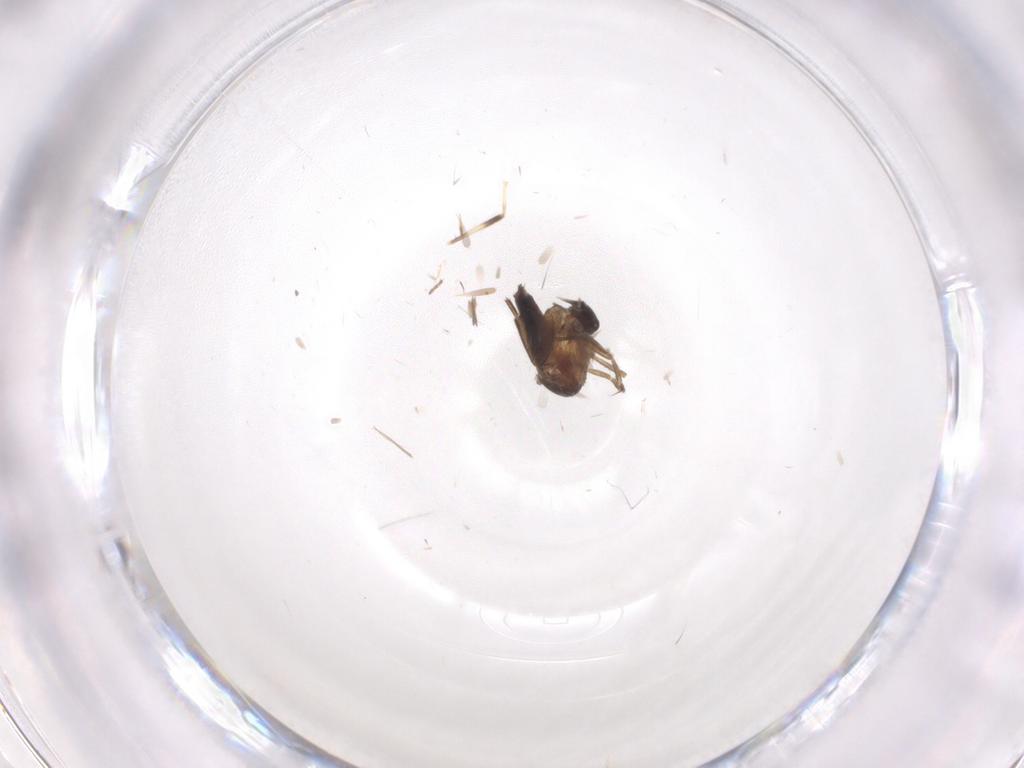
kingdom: Animalia
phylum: Arthropoda
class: Insecta
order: Diptera
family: Chironomidae
